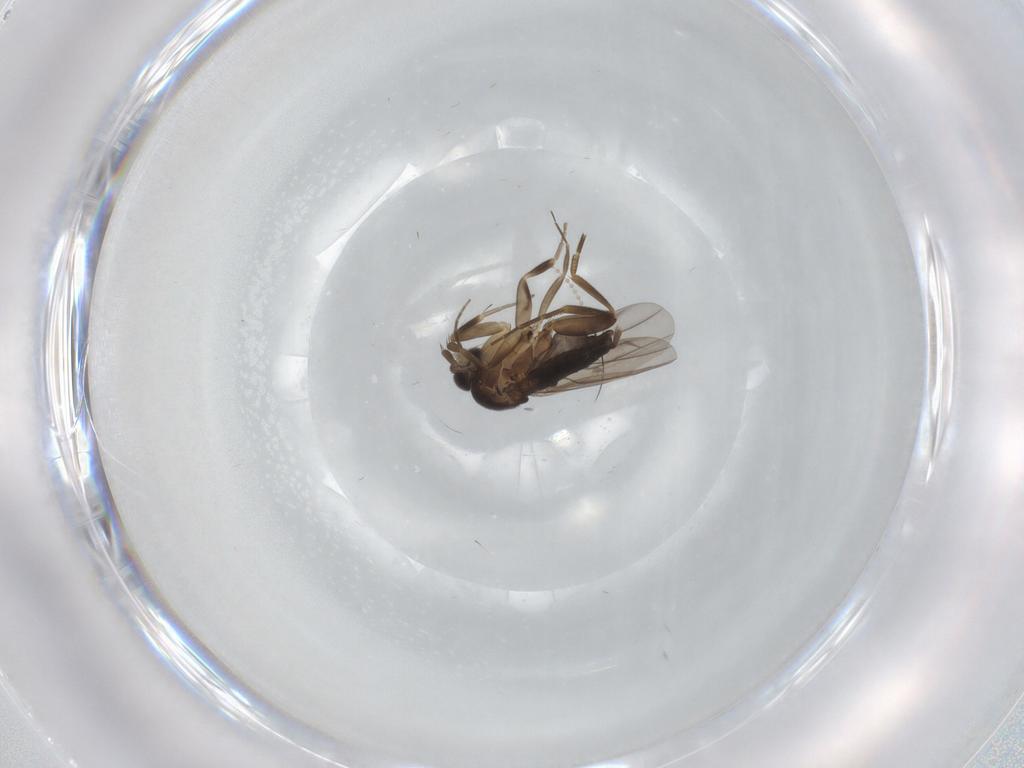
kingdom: Animalia
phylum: Arthropoda
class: Insecta
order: Diptera
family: Phoridae
